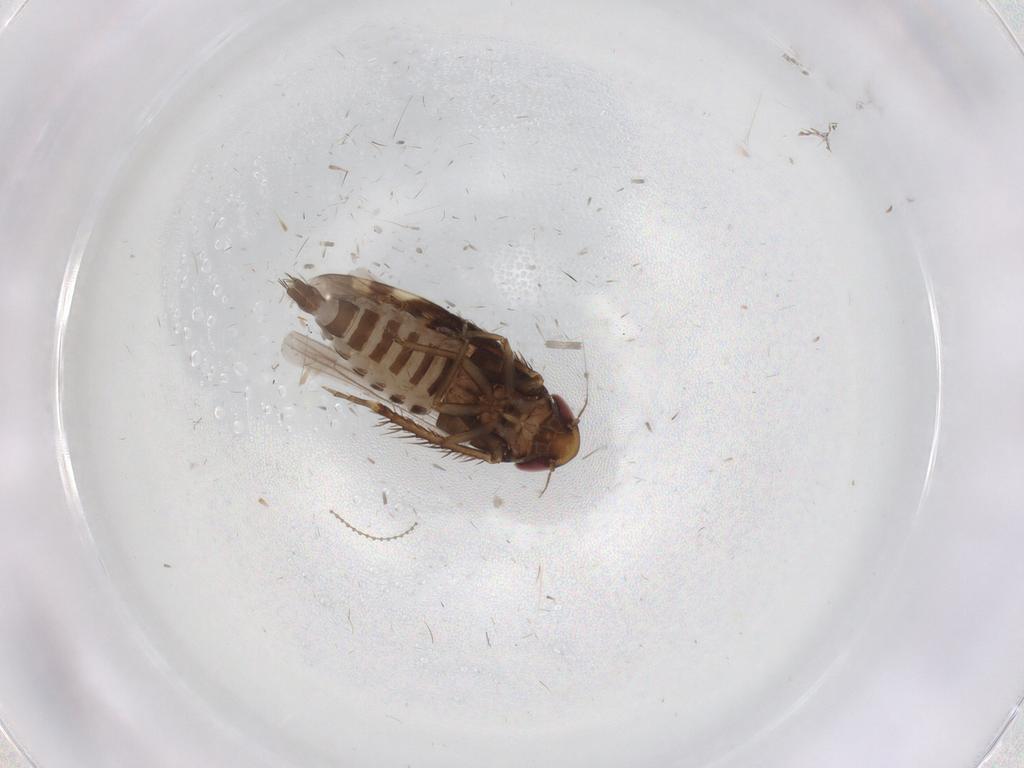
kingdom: Animalia
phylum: Arthropoda
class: Insecta
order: Hemiptera
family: Cicadellidae
